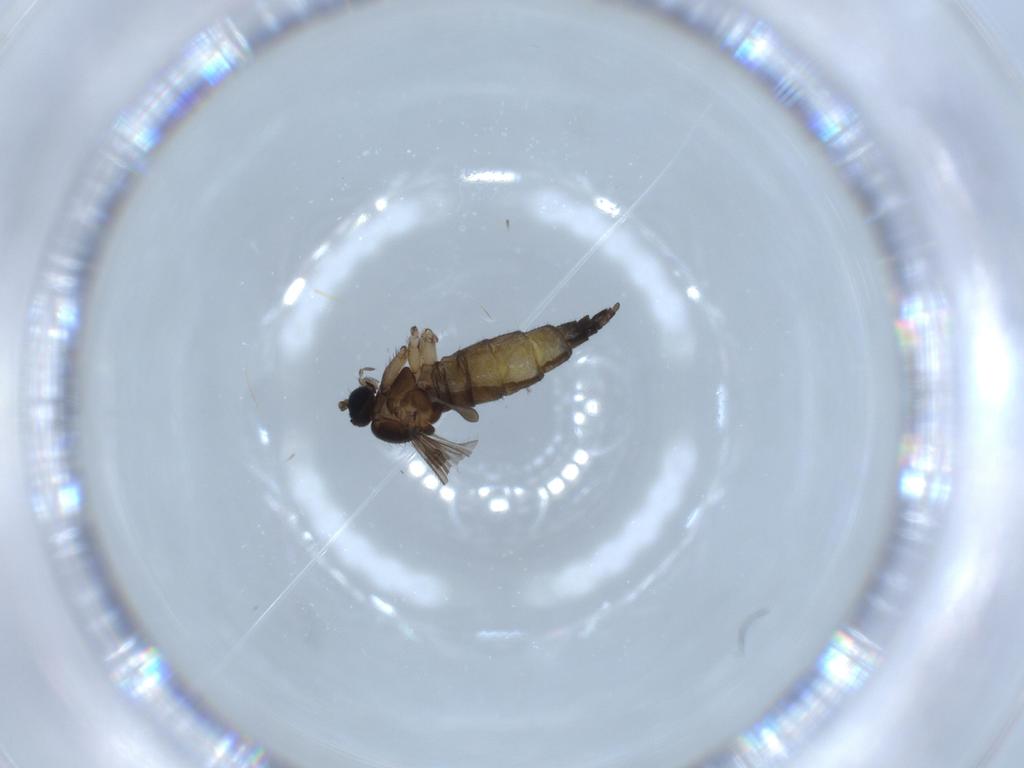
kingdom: Animalia
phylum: Arthropoda
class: Insecta
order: Diptera
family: Sciaridae
